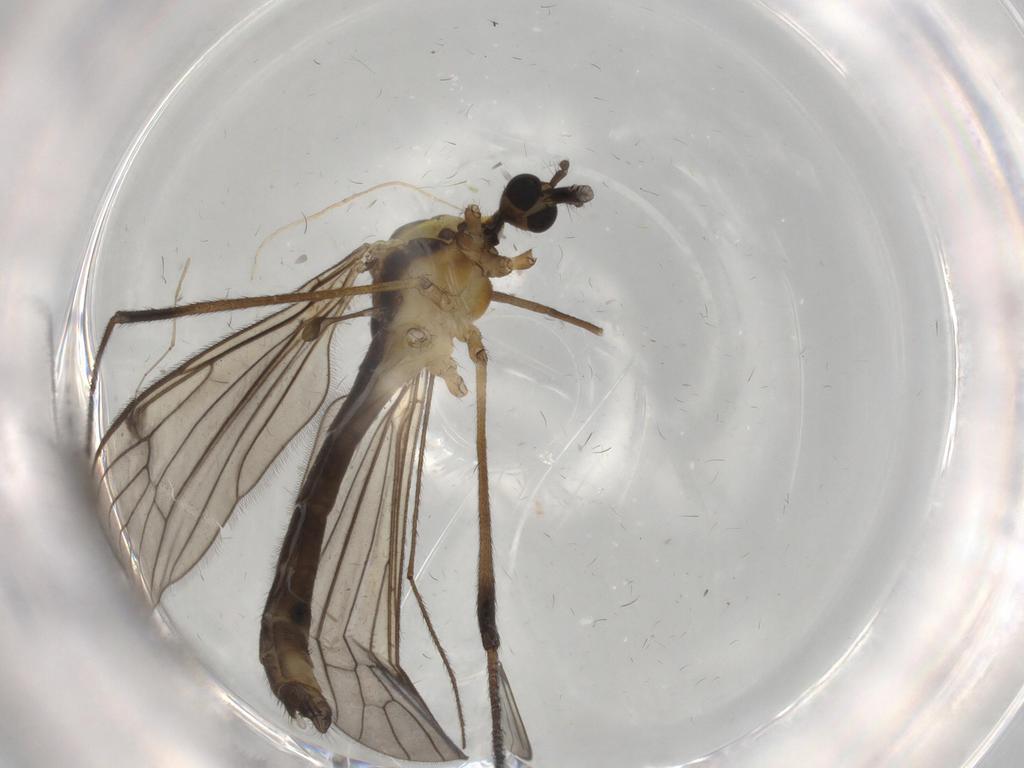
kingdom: Animalia
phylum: Arthropoda
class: Insecta
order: Diptera
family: Limoniidae
